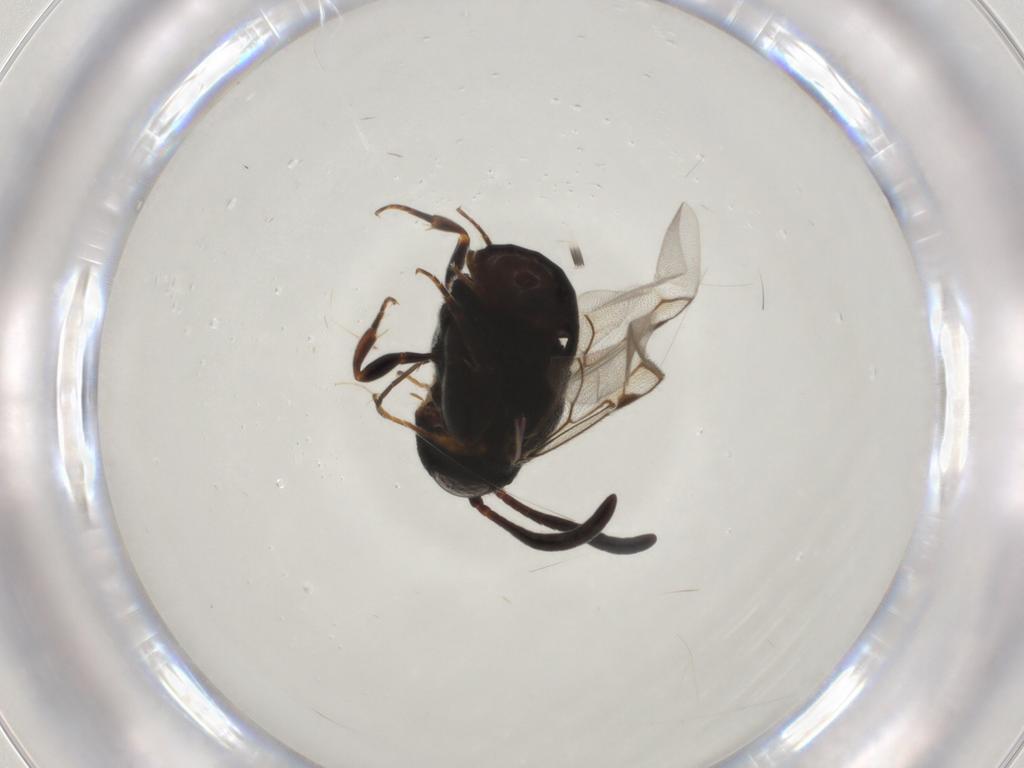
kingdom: Animalia
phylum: Arthropoda
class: Insecta
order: Hymenoptera
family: Evaniidae
